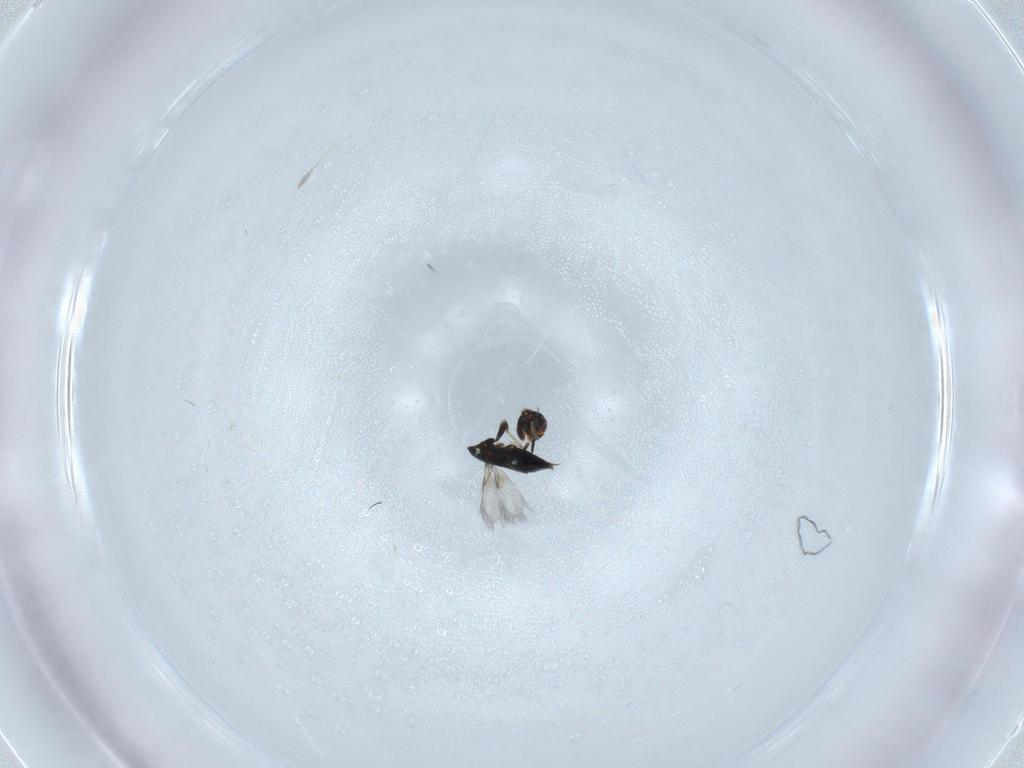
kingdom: Animalia
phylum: Arthropoda
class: Insecta
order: Hymenoptera
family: Signiphoridae
